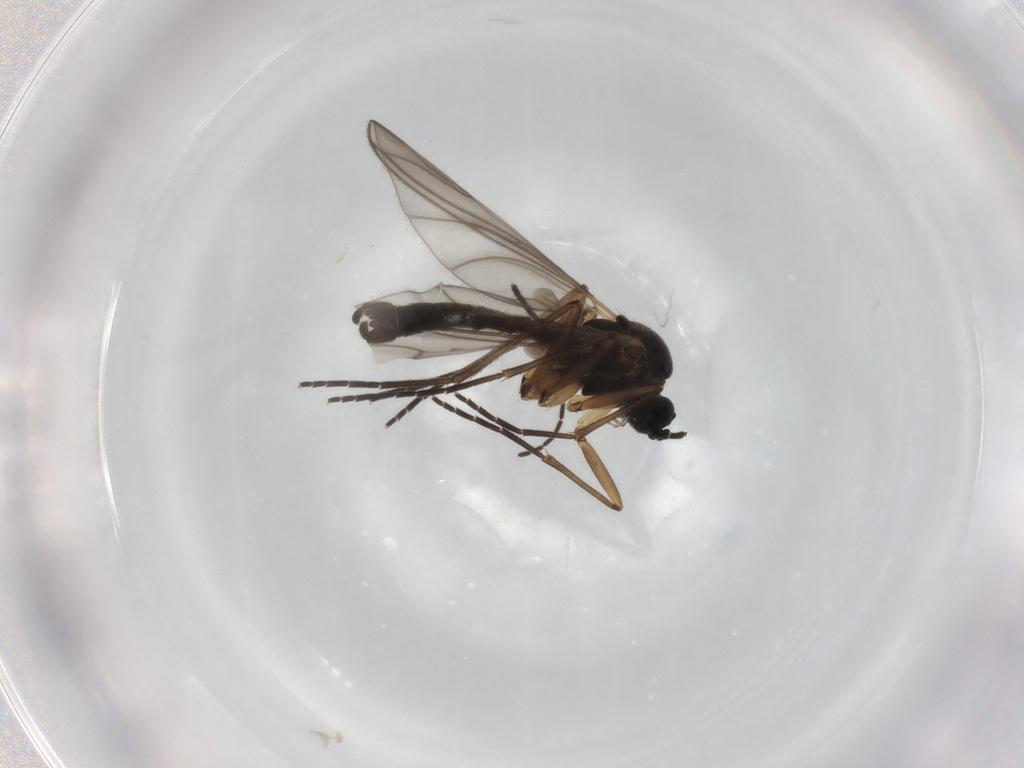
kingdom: Animalia
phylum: Arthropoda
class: Insecta
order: Diptera
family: Sciaridae
